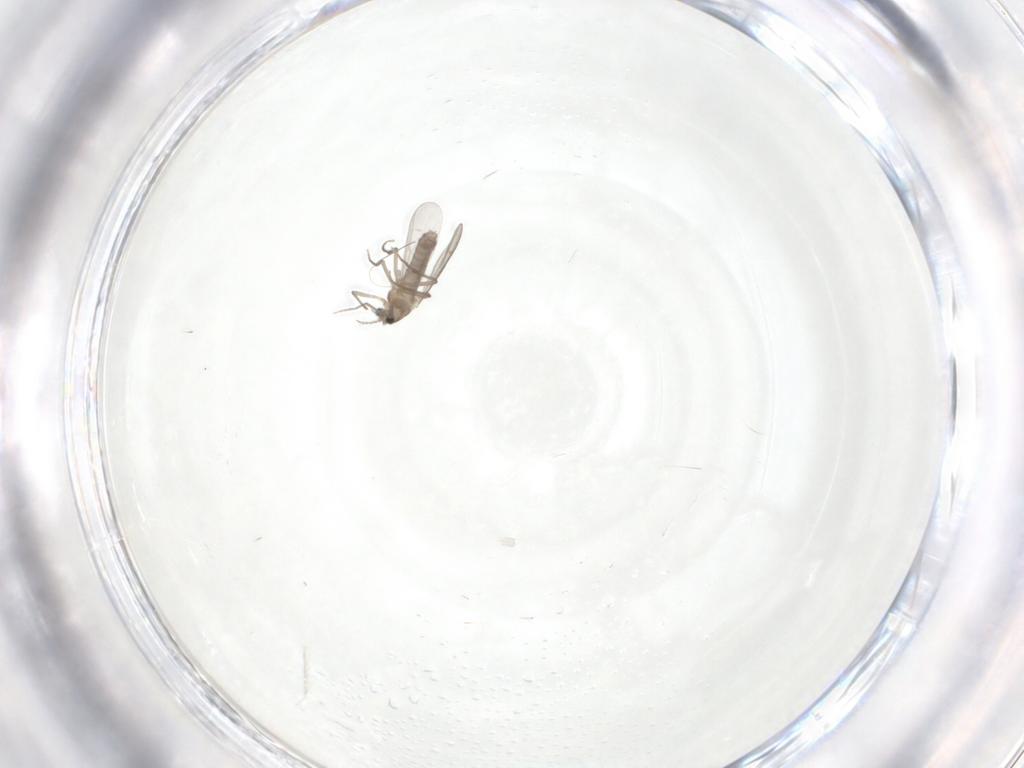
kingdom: Animalia
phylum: Arthropoda
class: Insecta
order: Diptera
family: Chironomidae
